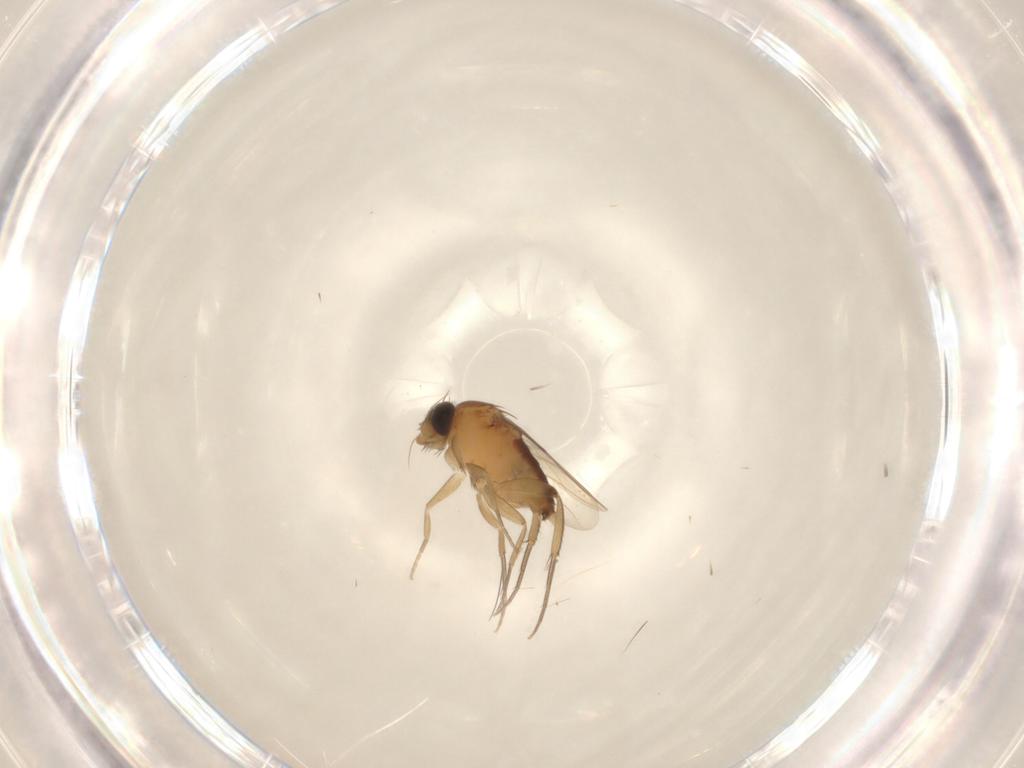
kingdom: Animalia
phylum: Arthropoda
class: Insecta
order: Diptera
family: Phoridae
